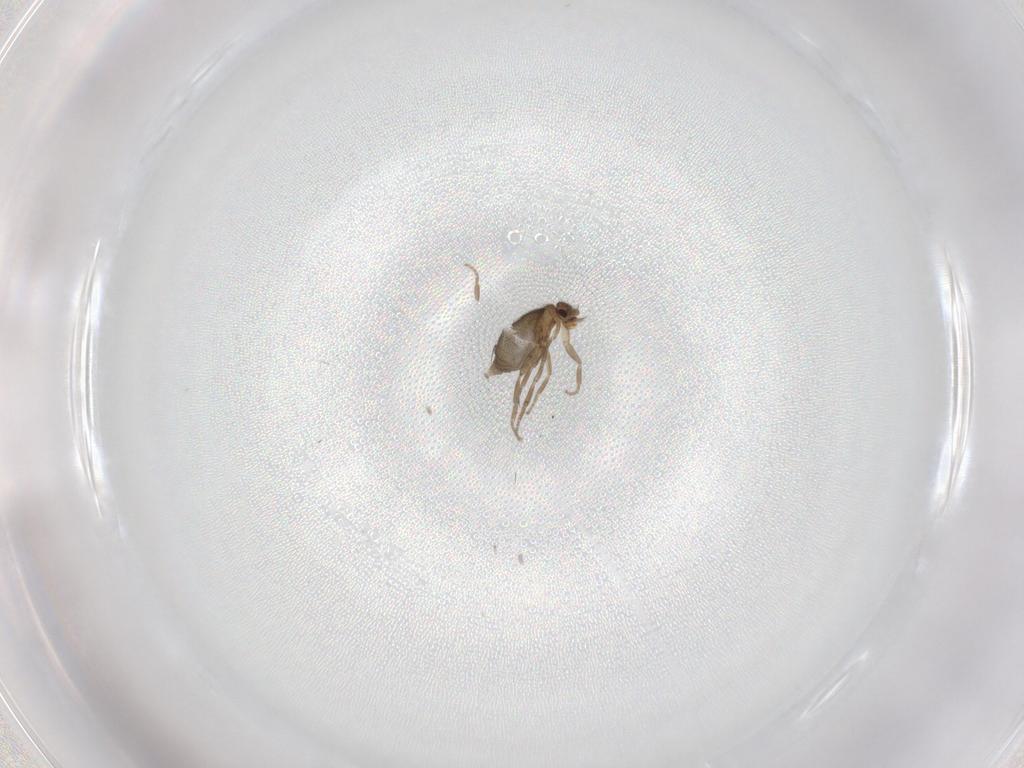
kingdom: Animalia
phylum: Arthropoda
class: Insecta
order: Diptera
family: Phoridae
